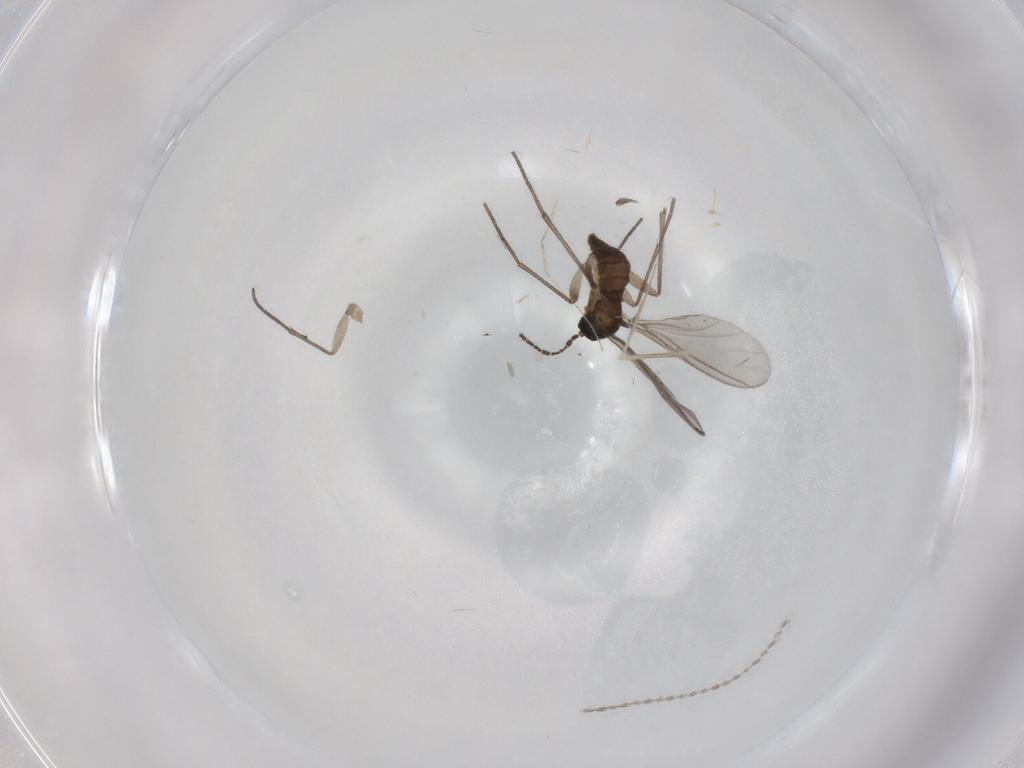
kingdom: Animalia
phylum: Arthropoda
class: Insecta
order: Diptera
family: Sciaridae
